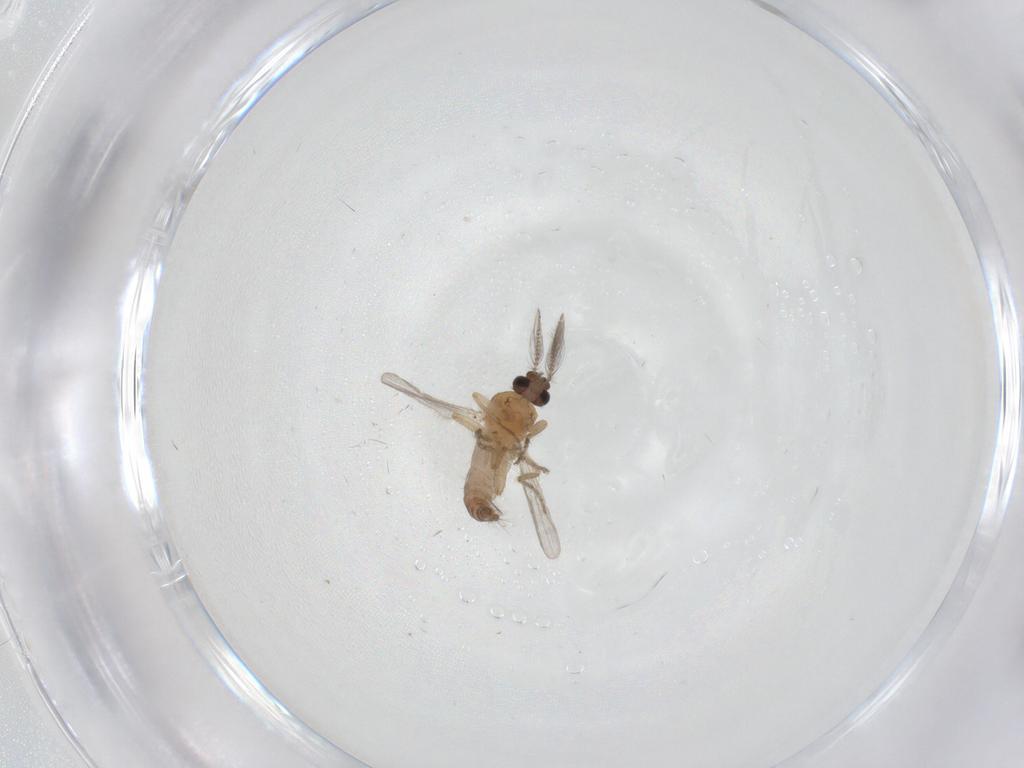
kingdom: Animalia
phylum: Arthropoda
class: Insecta
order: Diptera
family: Ceratopogonidae
